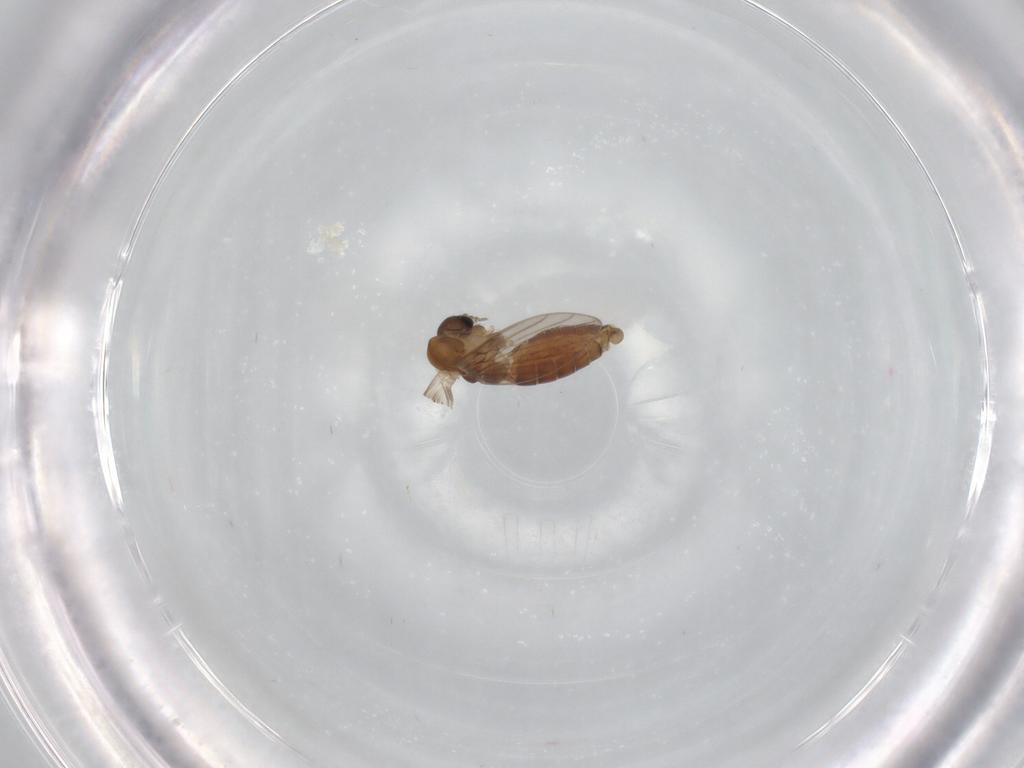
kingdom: Animalia
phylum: Arthropoda
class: Insecta
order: Diptera
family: Psychodidae
